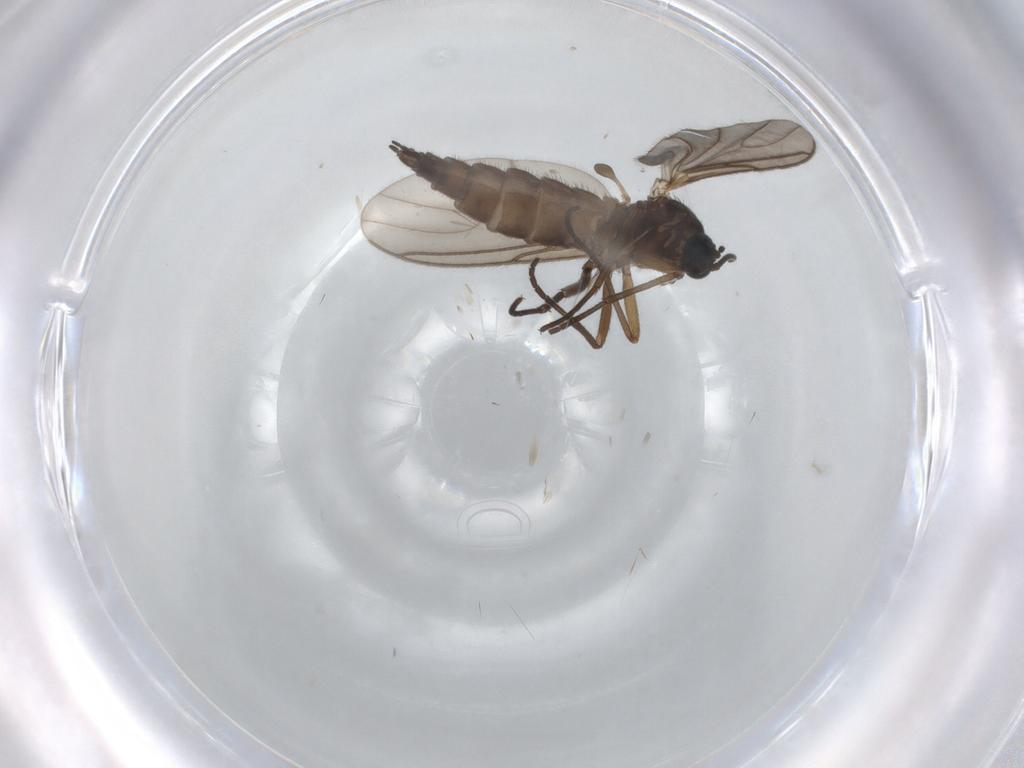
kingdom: Animalia
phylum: Arthropoda
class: Insecta
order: Diptera
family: Sciaridae
